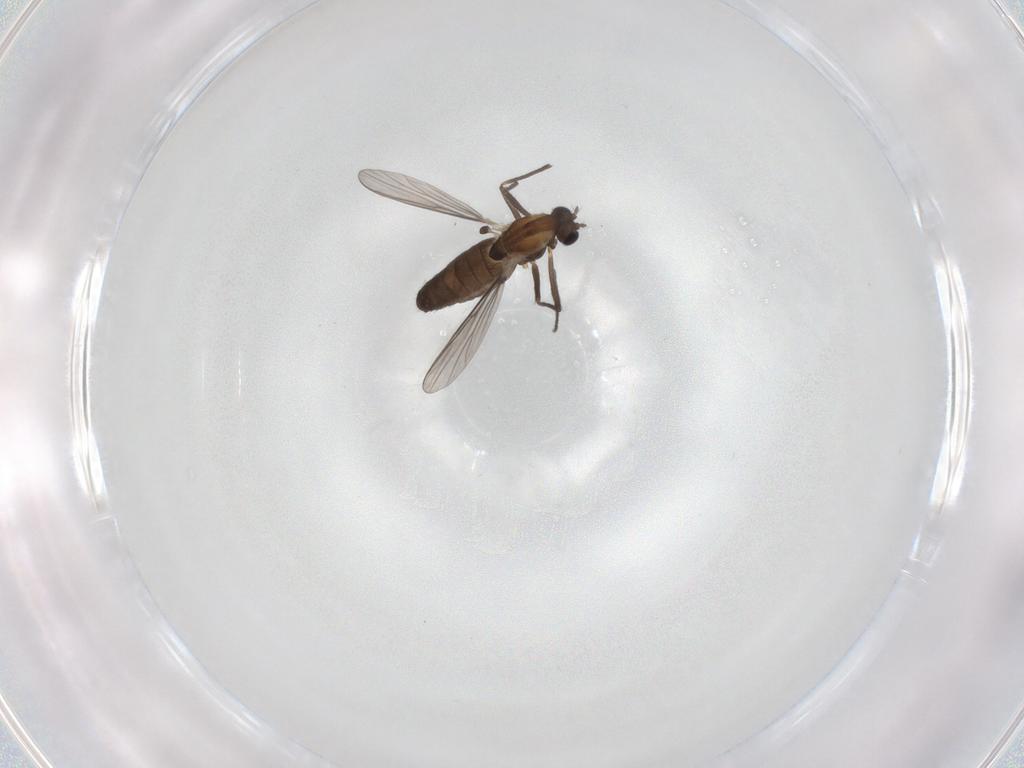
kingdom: Animalia
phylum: Arthropoda
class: Insecta
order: Diptera
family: Chironomidae
